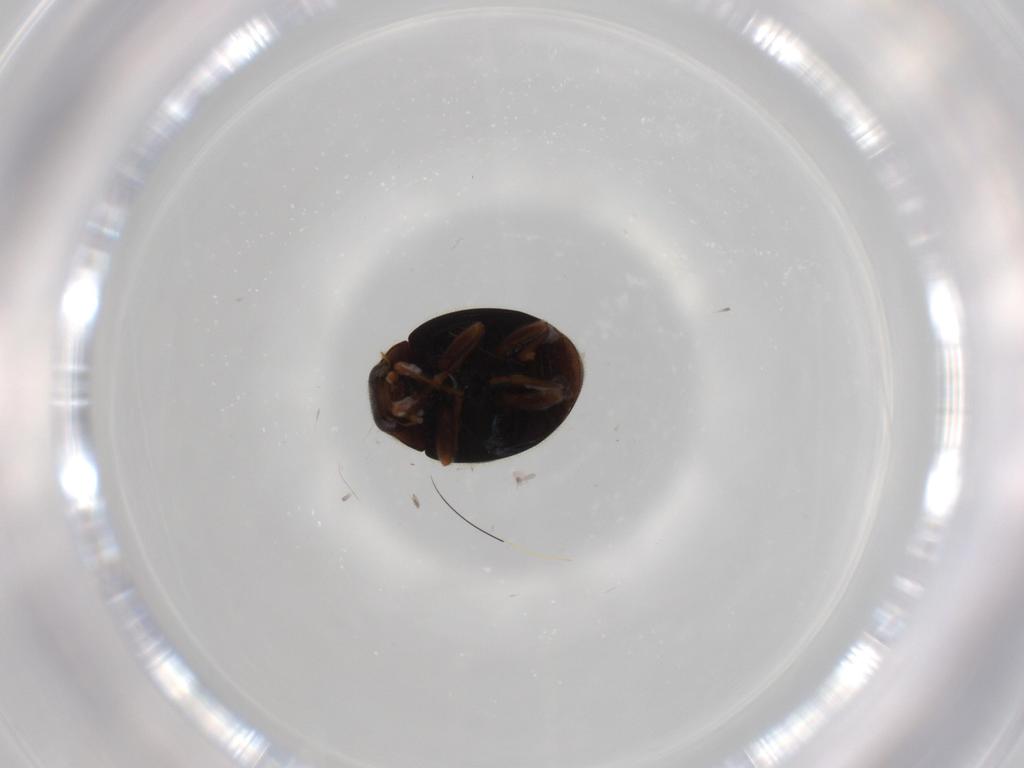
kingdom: Animalia
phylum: Arthropoda
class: Insecta
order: Coleoptera
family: Coccinellidae
